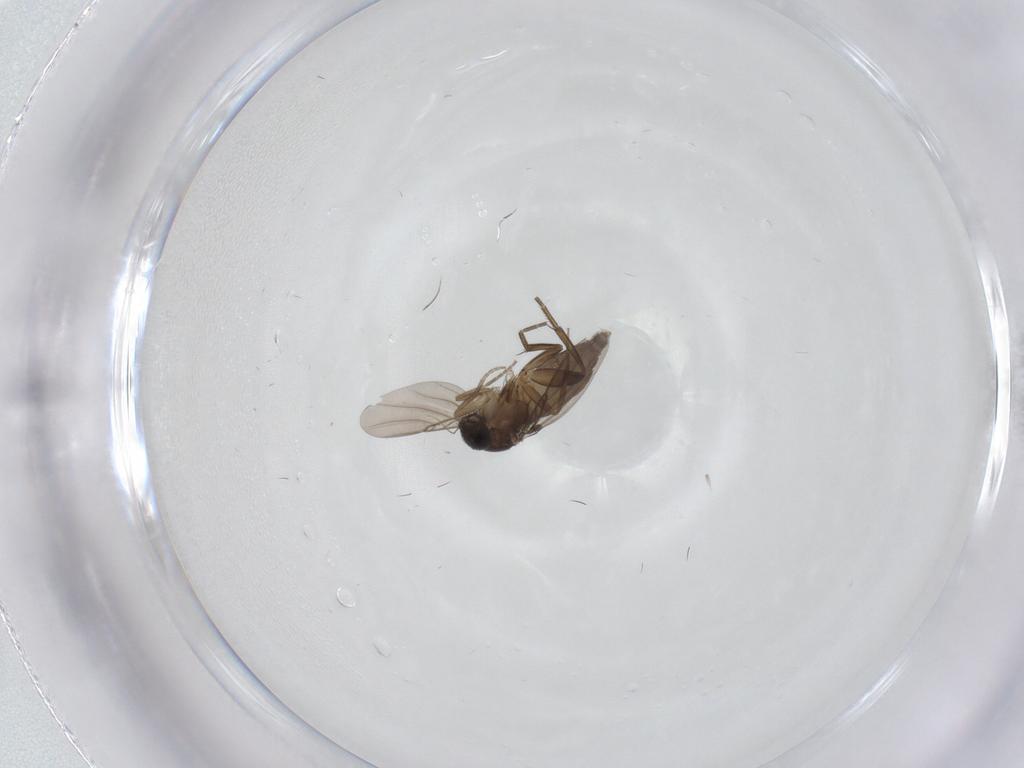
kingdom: Animalia
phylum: Arthropoda
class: Insecta
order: Diptera
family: Phoridae
